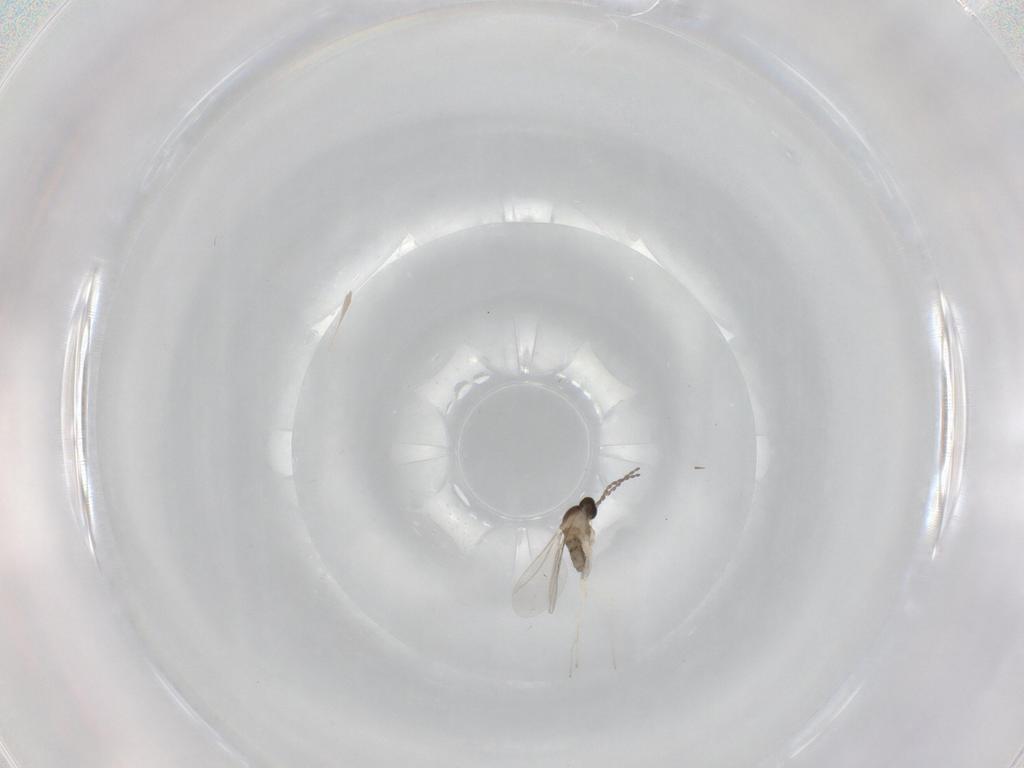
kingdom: Animalia
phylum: Arthropoda
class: Insecta
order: Diptera
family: Cecidomyiidae
